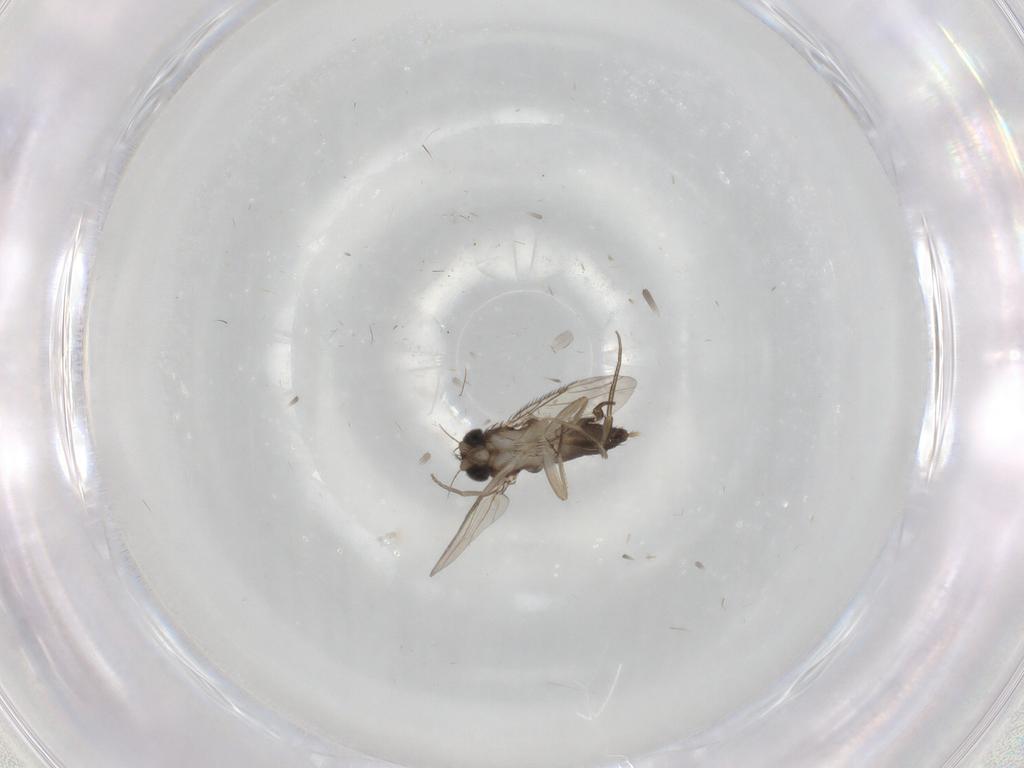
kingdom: Animalia
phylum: Arthropoda
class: Insecta
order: Diptera
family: Phoridae
